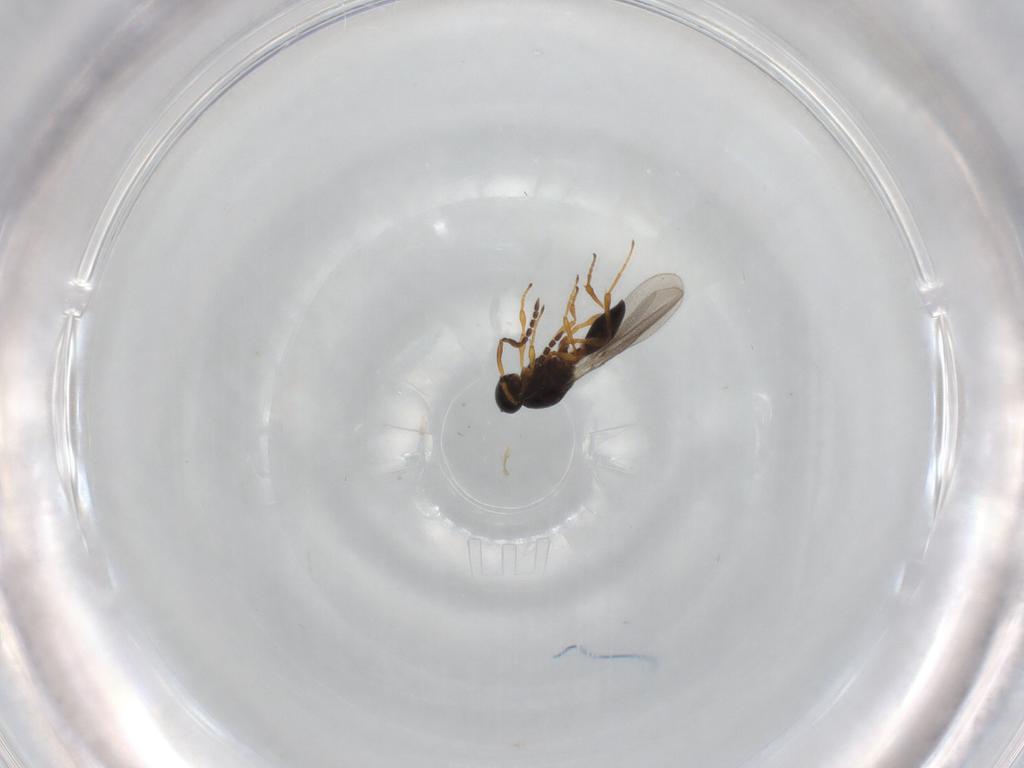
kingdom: Animalia
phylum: Arthropoda
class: Insecta
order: Hymenoptera
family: Platygastridae
